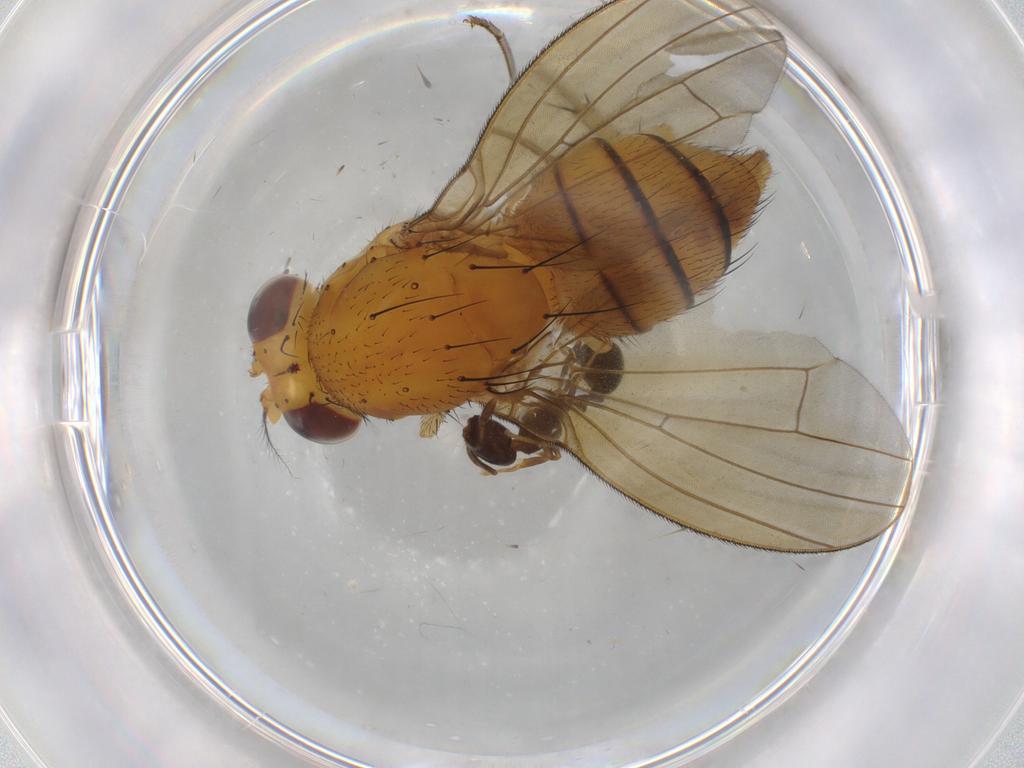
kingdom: Animalia
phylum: Arthropoda
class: Insecta
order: Diptera
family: Lauxaniidae
